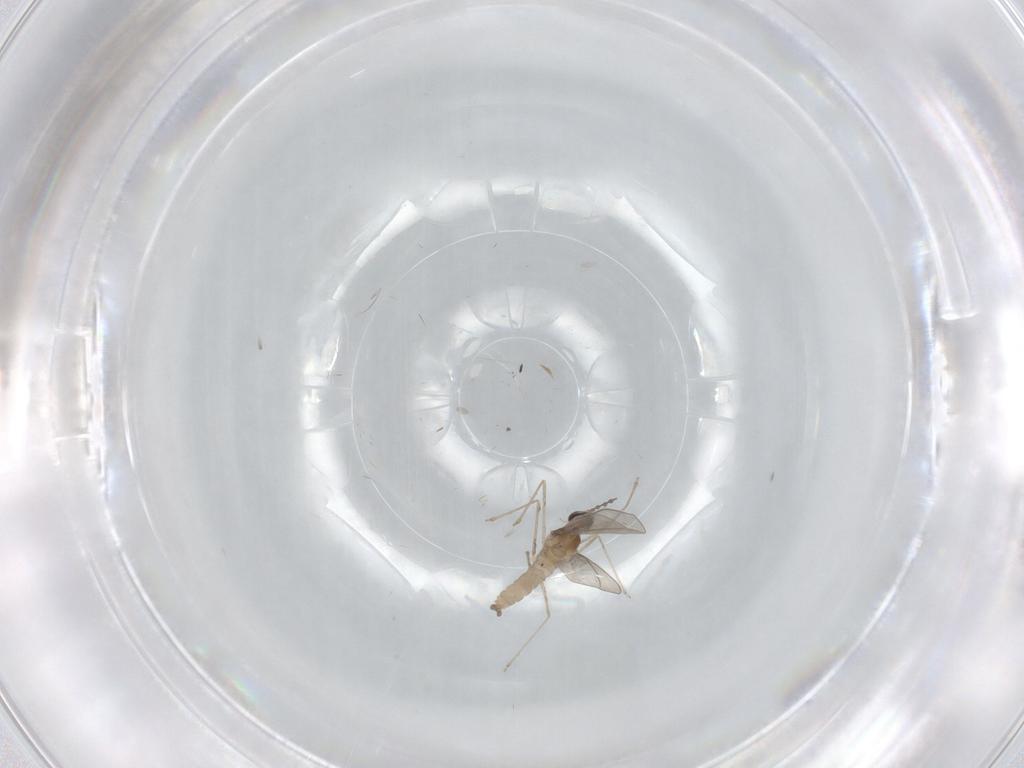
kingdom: Animalia
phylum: Arthropoda
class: Insecta
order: Diptera
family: Cecidomyiidae
